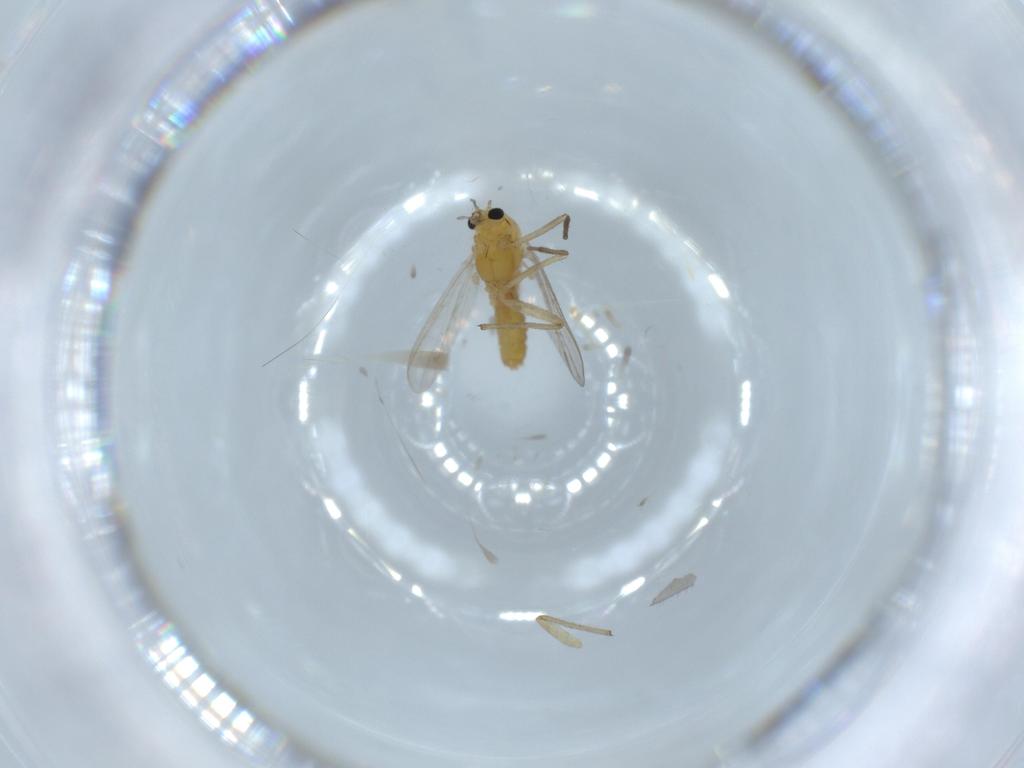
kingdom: Animalia
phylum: Arthropoda
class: Insecta
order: Diptera
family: Chironomidae
